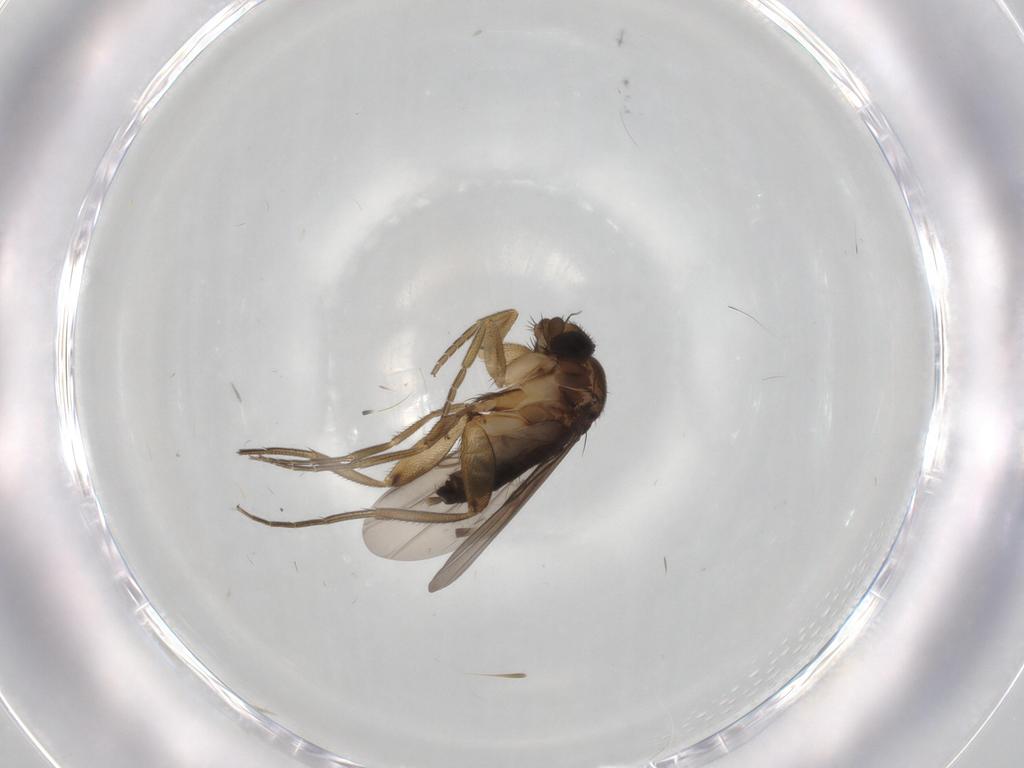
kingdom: Animalia
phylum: Arthropoda
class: Insecta
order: Diptera
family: Phoridae
